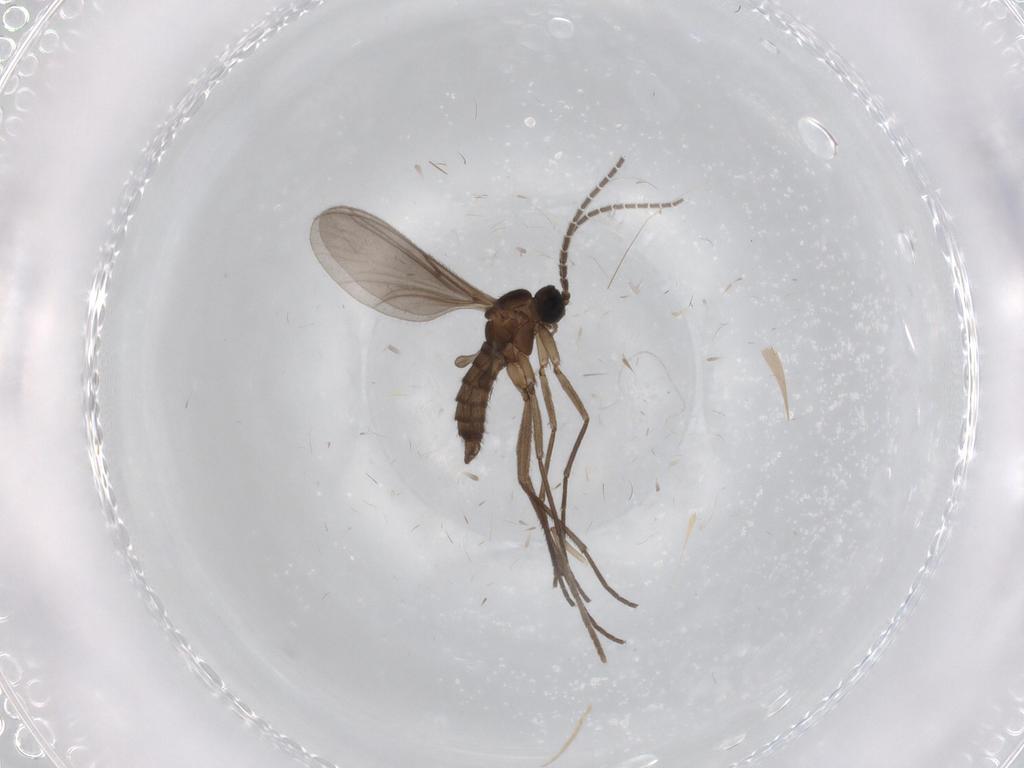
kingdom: Animalia
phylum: Arthropoda
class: Insecta
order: Diptera
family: Psychodidae
